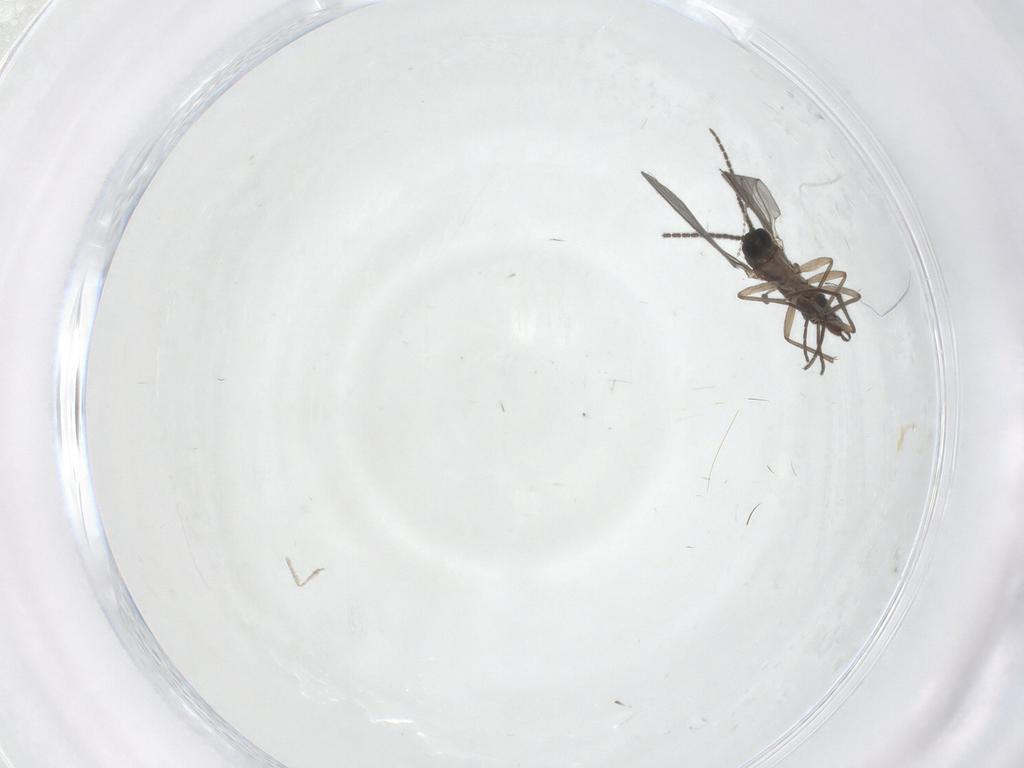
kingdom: Animalia
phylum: Arthropoda
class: Insecta
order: Diptera
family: Sciaridae
